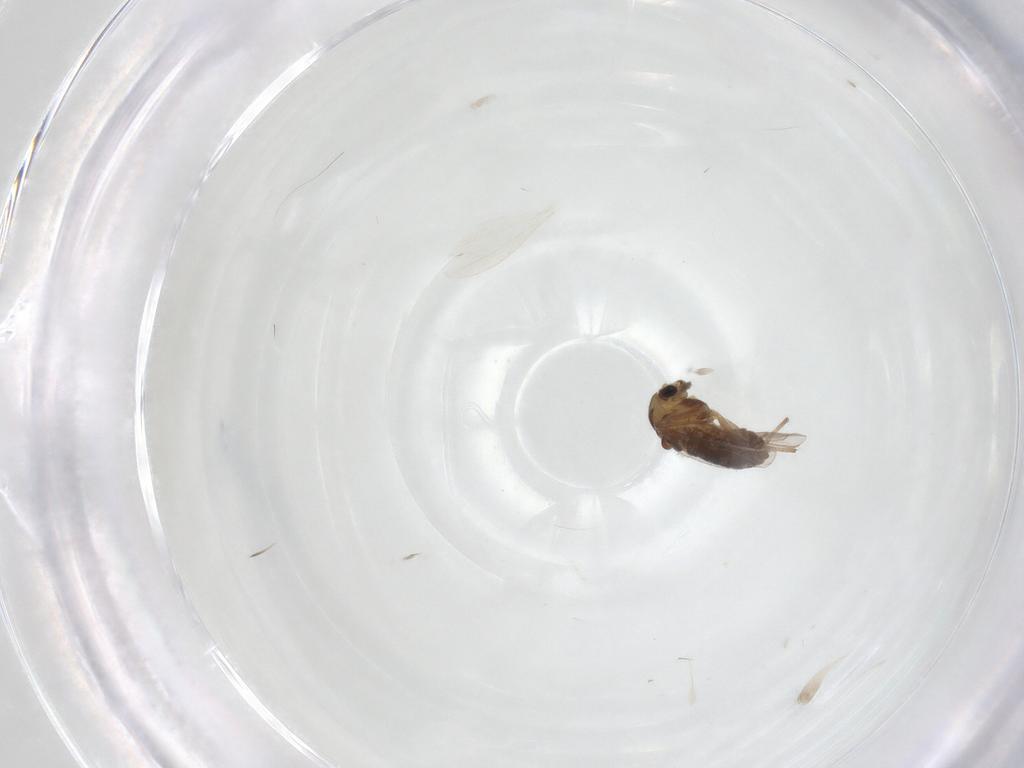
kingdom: Animalia
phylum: Arthropoda
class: Insecta
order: Diptera
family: Chironomidae
